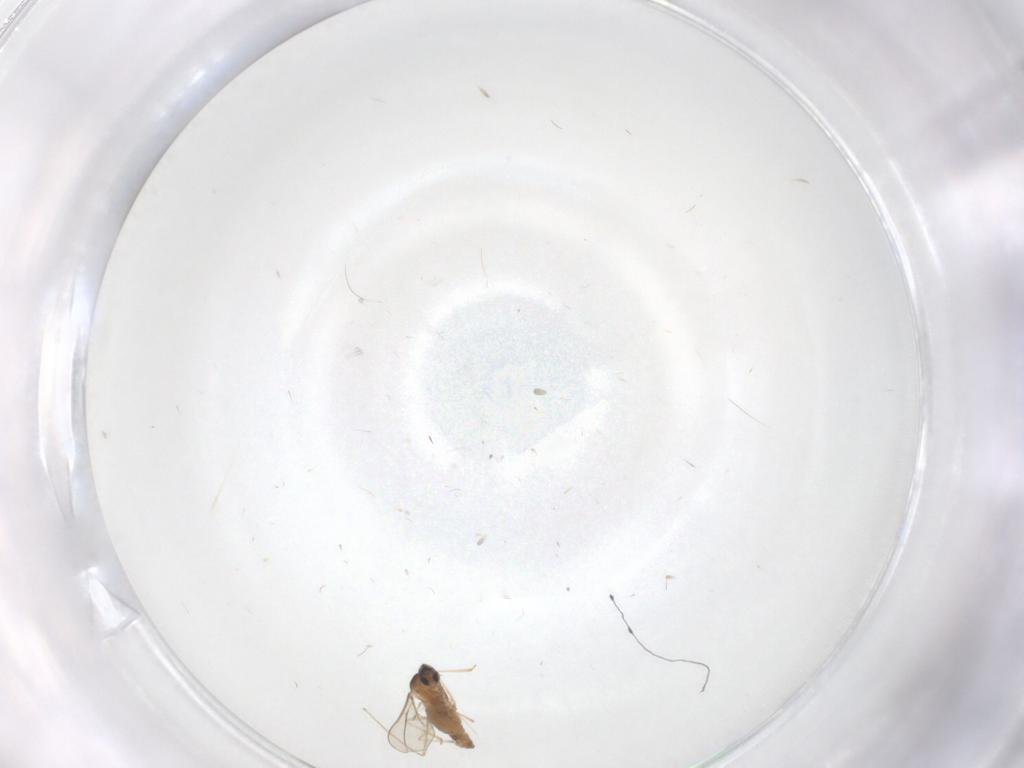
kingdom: Animalia
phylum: Arthropoda
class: Insecta
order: Diptera
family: Cecidomyiidae
